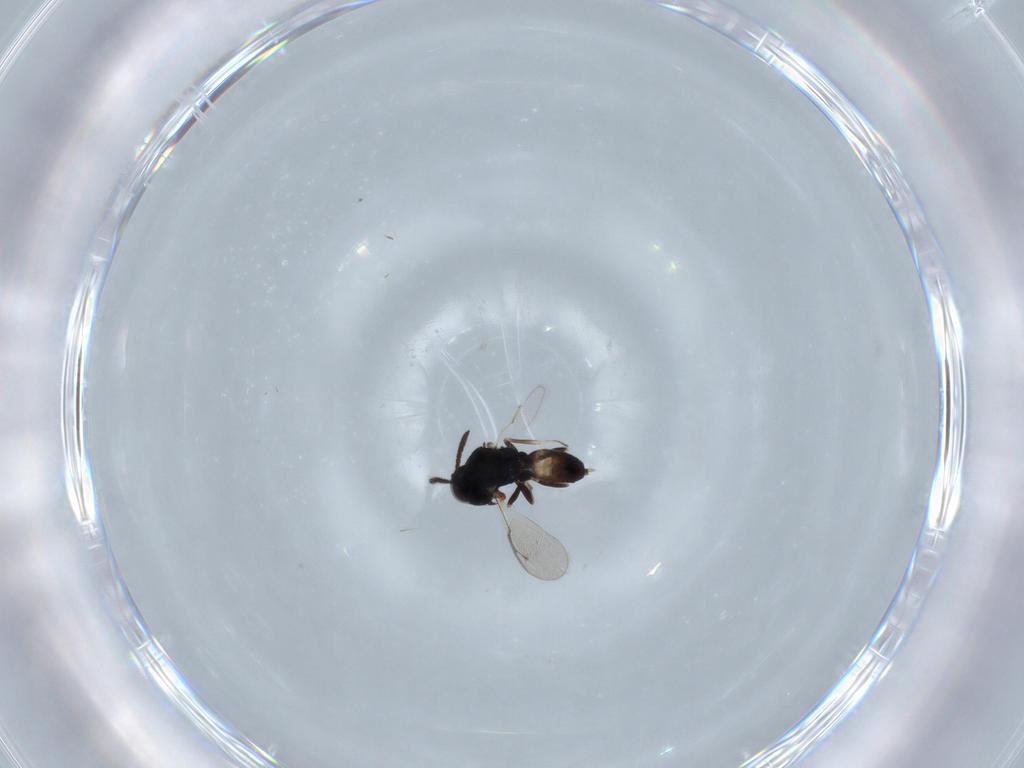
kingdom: Animalia
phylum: Arthropoda
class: Insecta
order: Hymenoptera
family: Pteromalidae
